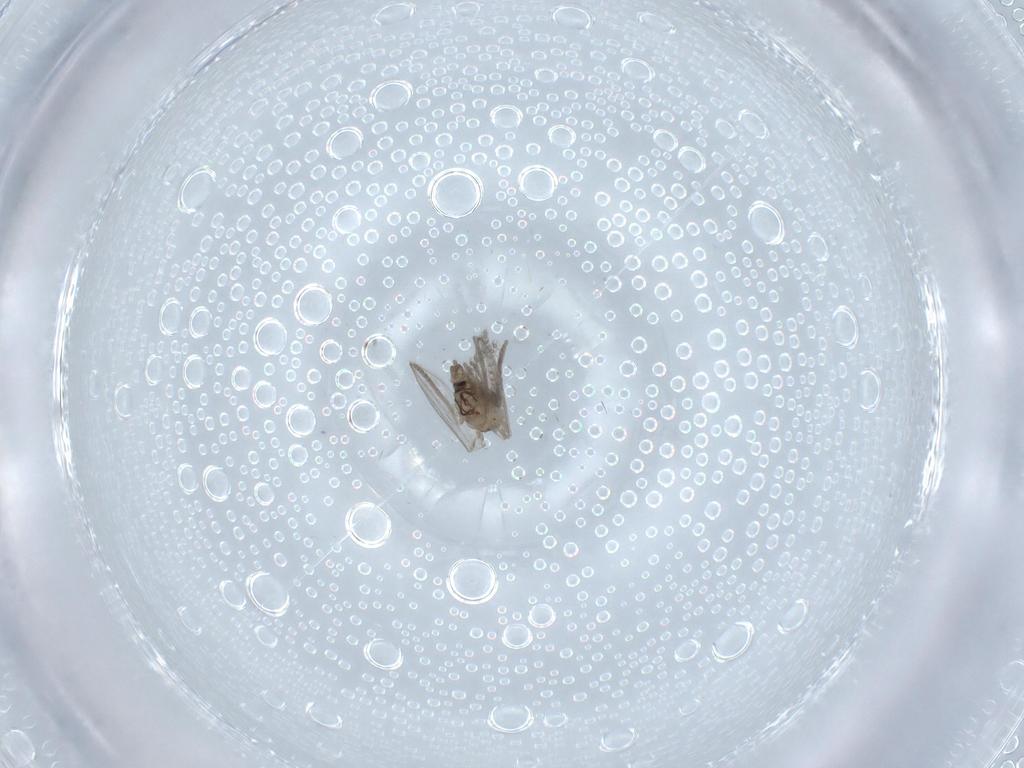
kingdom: Animalia
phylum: Arthropoda
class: Insecta
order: Diptera
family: Psychodidae
